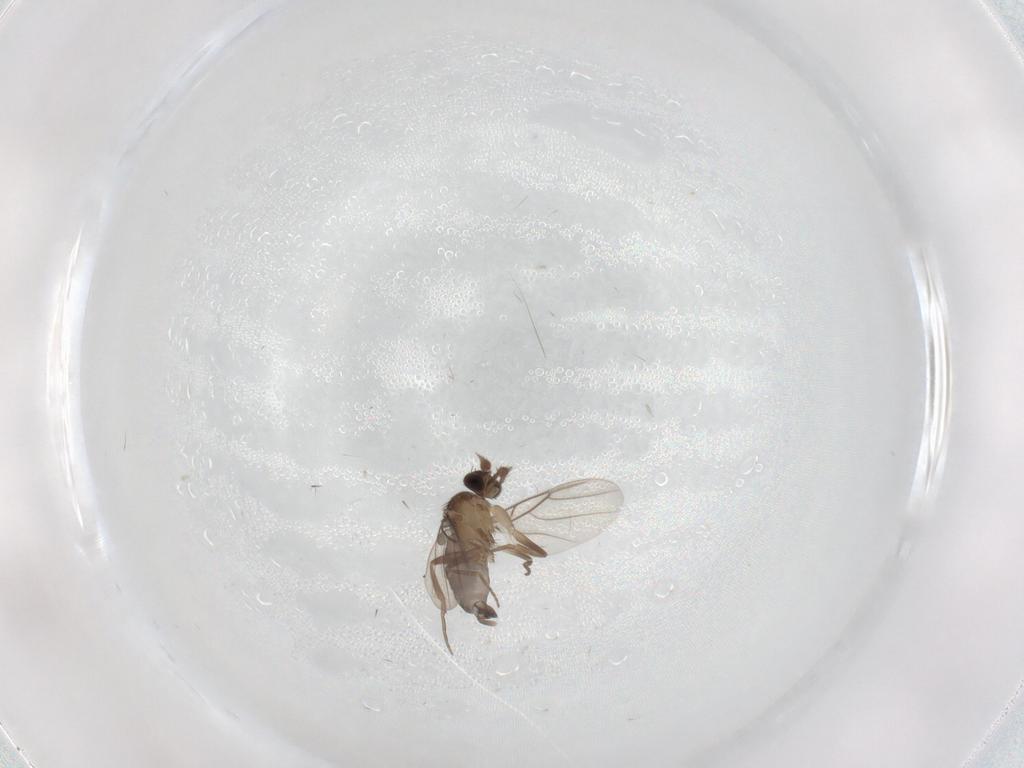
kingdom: Animalia
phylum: Arthropoda
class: Insecta
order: Diptera
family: Phoridae
